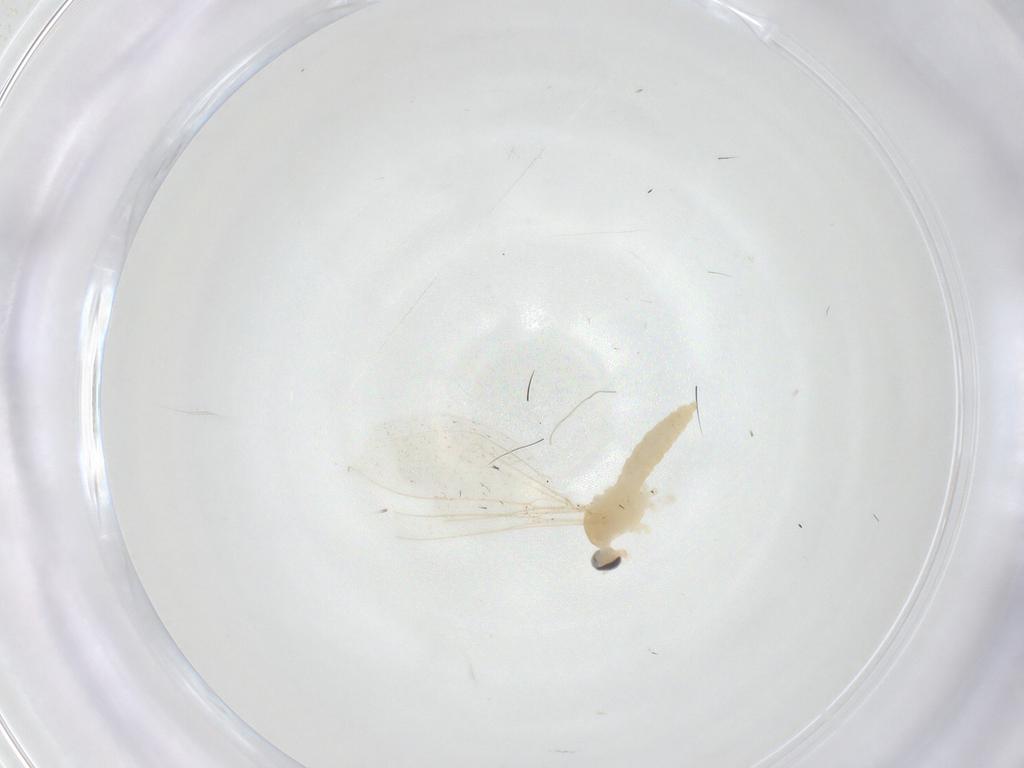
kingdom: Animalia
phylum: Arthropoda
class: Insecta
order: Diptera
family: Cecidomyiidae
